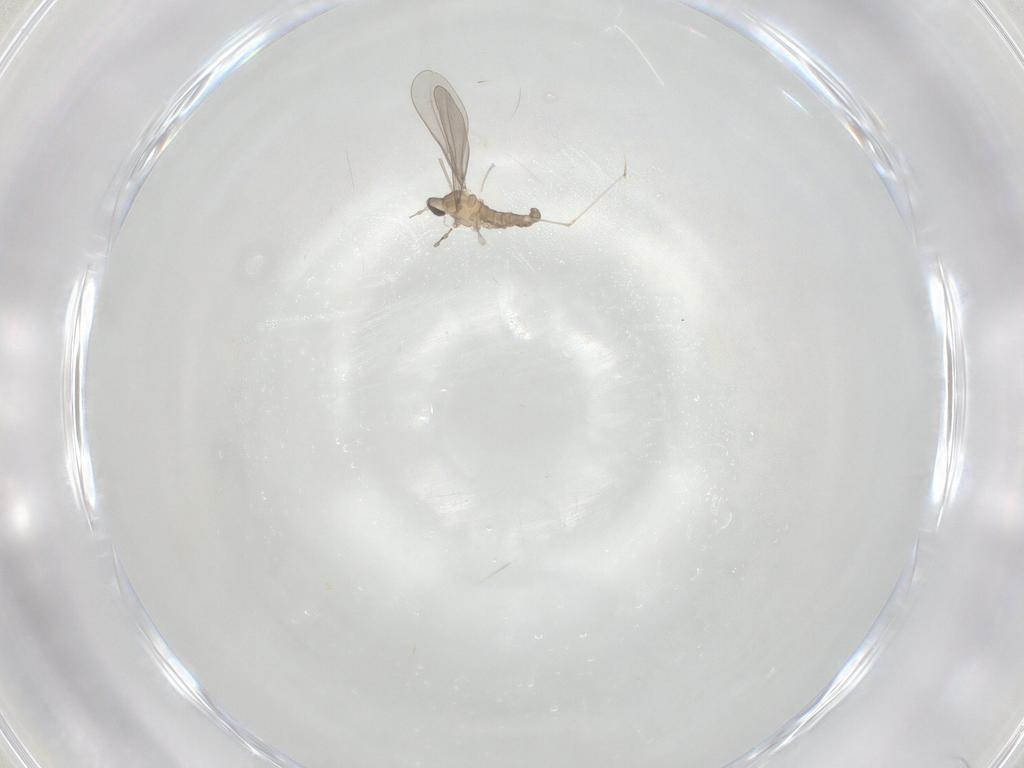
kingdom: Animalia
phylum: Arthropoda
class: Insecta
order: Diptera
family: Cecidomyiidae
